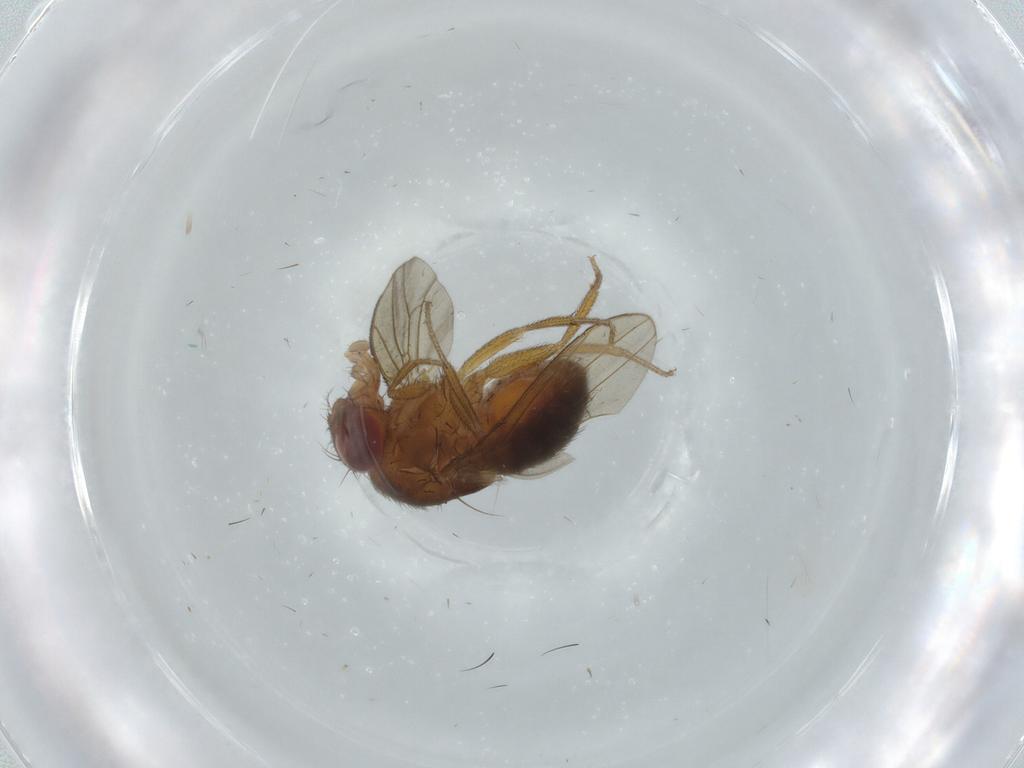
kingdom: Animalia
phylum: Arthropoda
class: Insecta
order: Diptera
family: Drosophilidae
